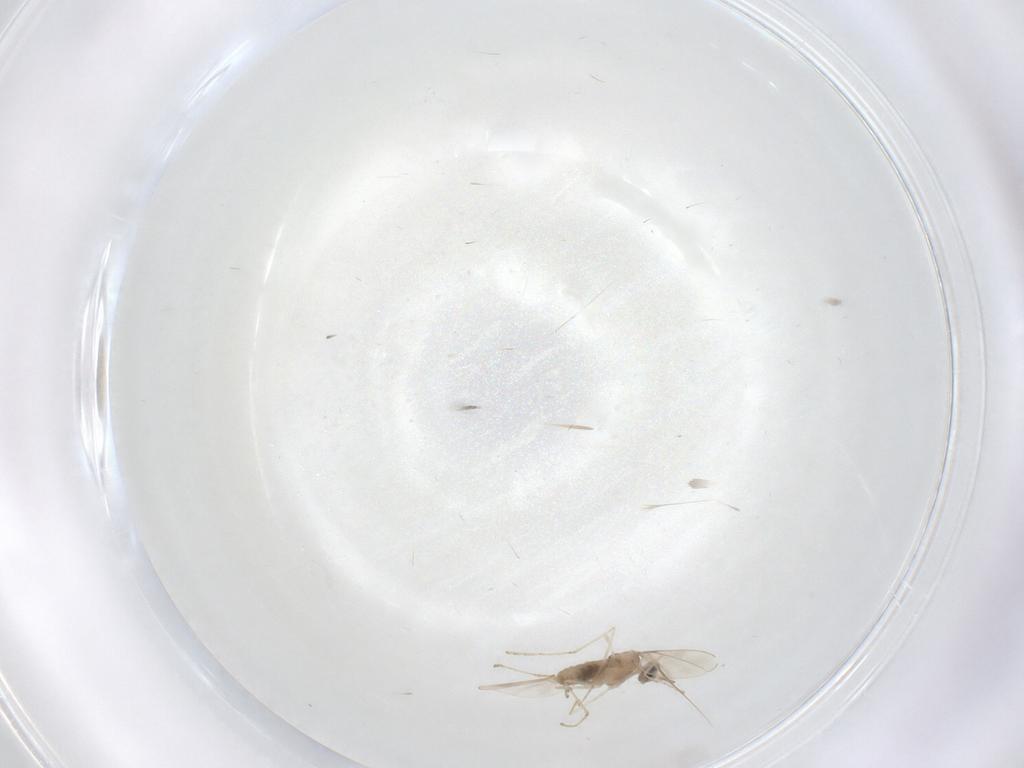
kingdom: Animalia
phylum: Arthropoda
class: Insecta
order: Diptera
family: Cecidomyiidae
